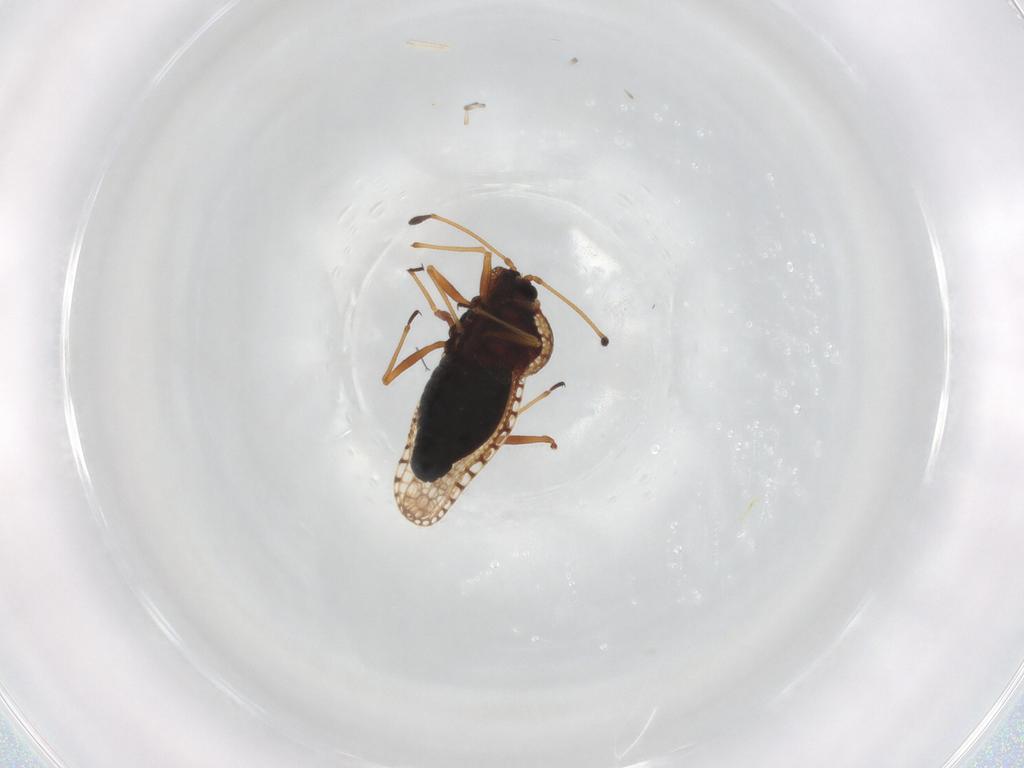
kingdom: Animalia
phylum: Arthropoda
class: Insecta
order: Hemiptera
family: Tingidae
